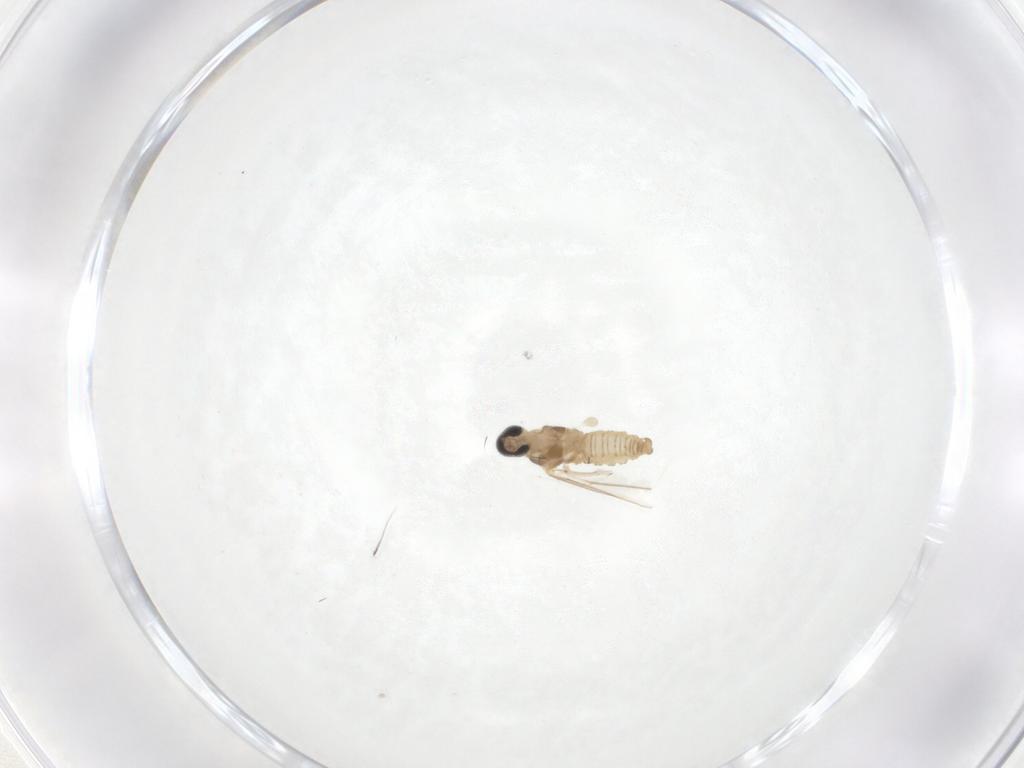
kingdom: Animalia
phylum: Arthropoda
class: Insecta
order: Diptera
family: Cecidomyiidae
